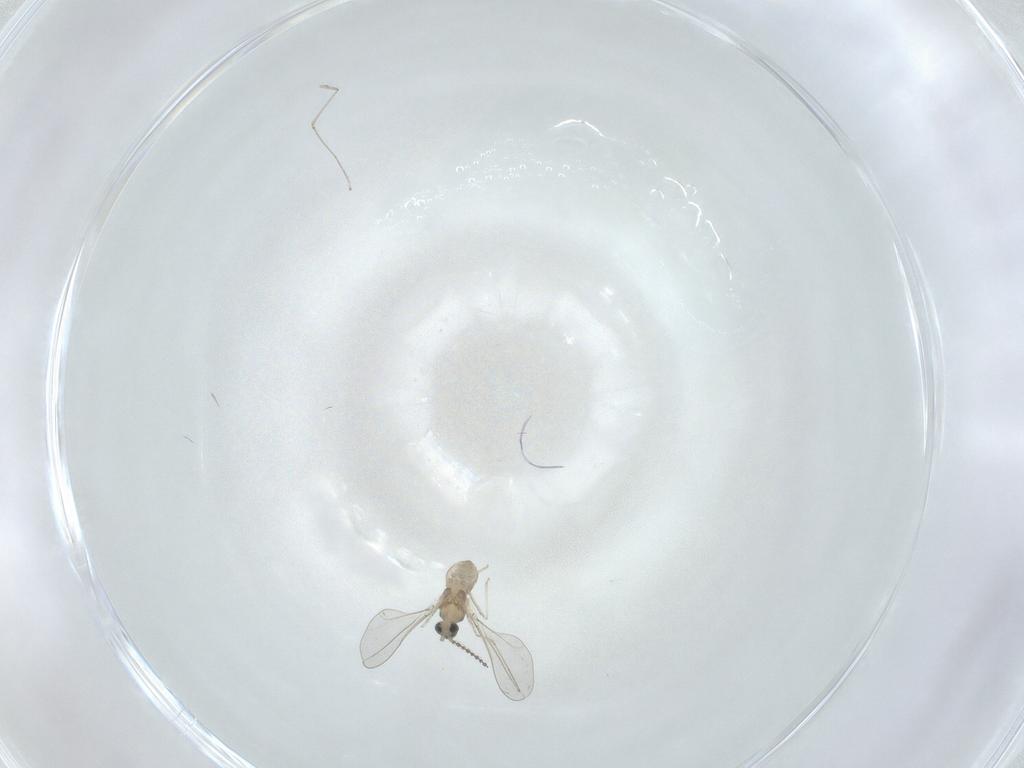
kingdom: Animalia
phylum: Arthropoda
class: Insecta
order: Diptera
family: Cecidomyiidae
